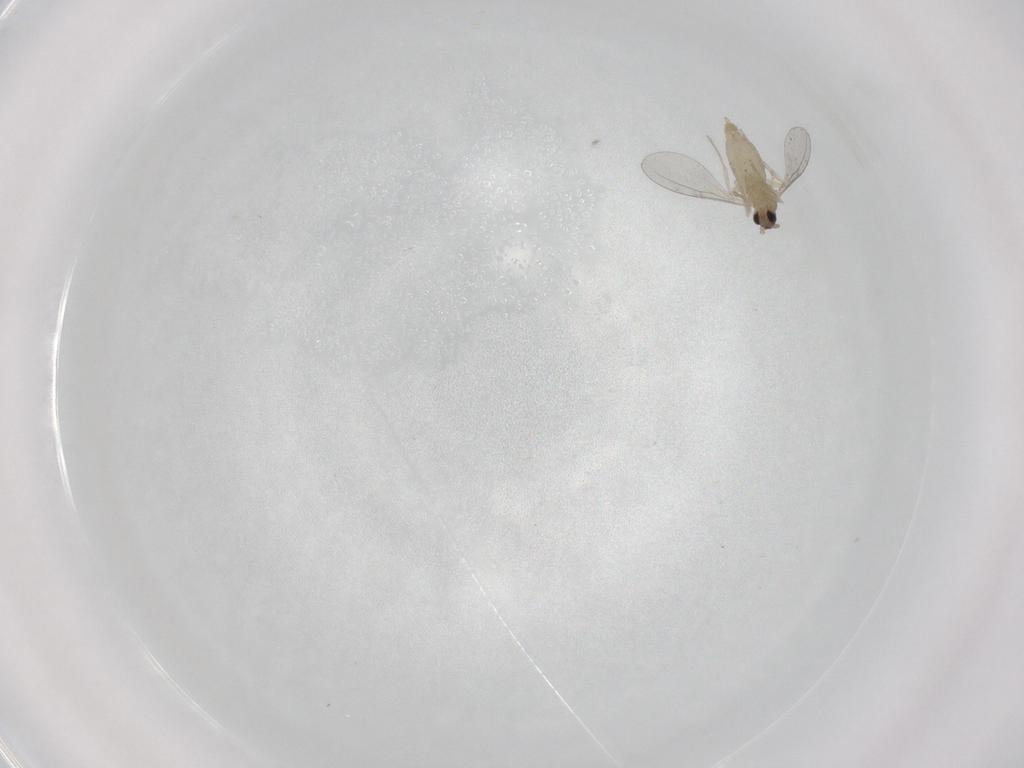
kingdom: Animalia
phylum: Arthropoda
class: Insecta
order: Diptera
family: Cecidomyiidae
